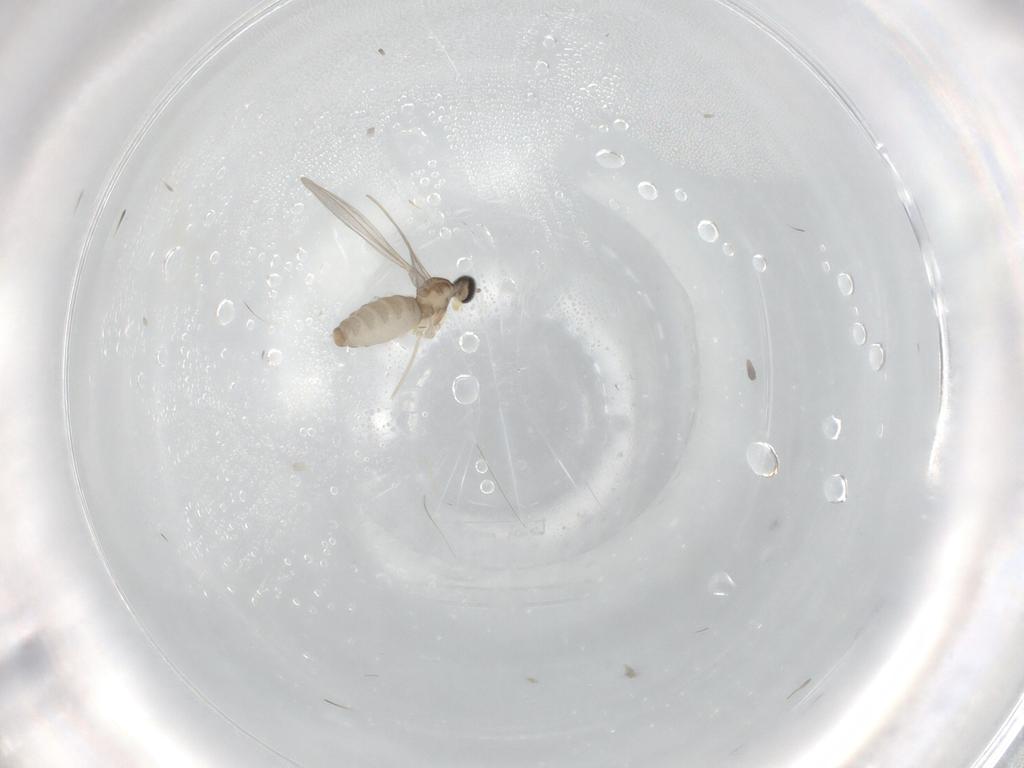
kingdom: Animalia
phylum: Arthropoda
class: Insecta
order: Diptera
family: Cecidomyiidae
